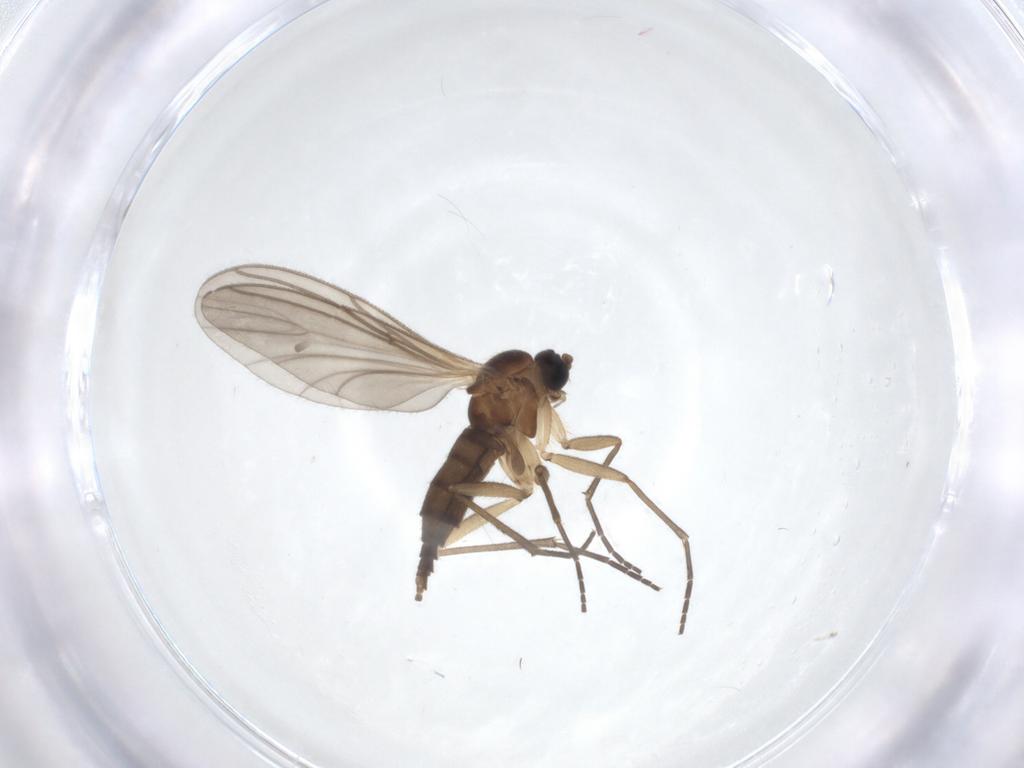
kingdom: Animalia
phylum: Arthropoda
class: Insecta
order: Diptera
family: Sciaridae
